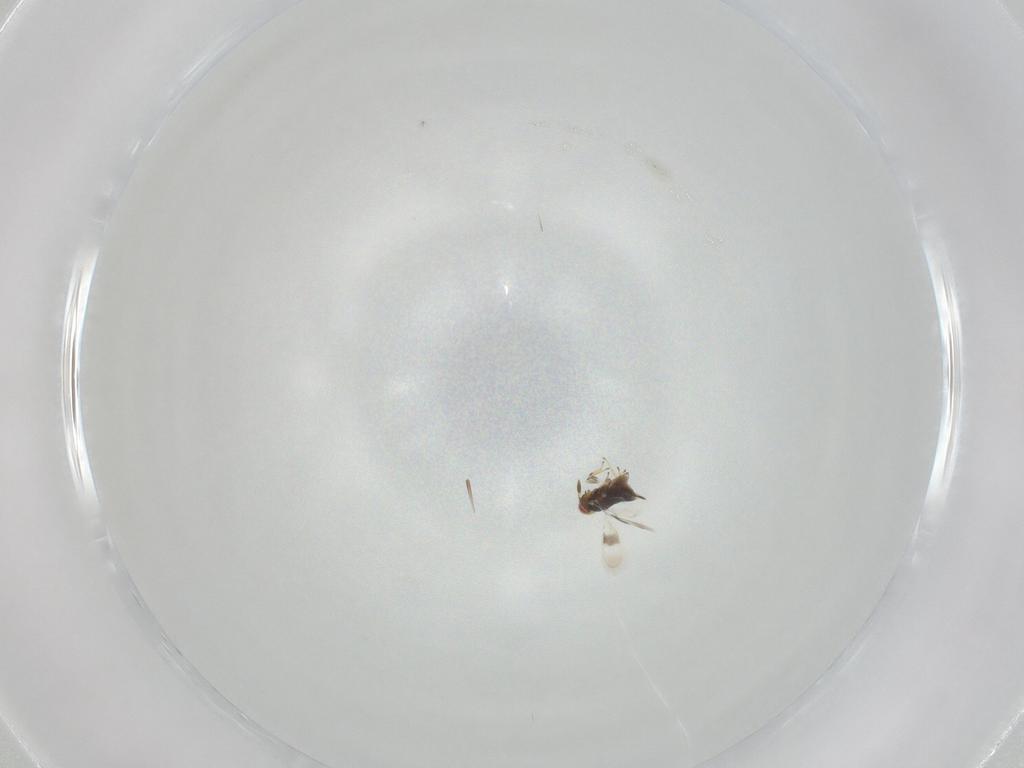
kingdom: Animalia
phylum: Arthropoda
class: Insecta
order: Hymenoptera
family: Azotidae
